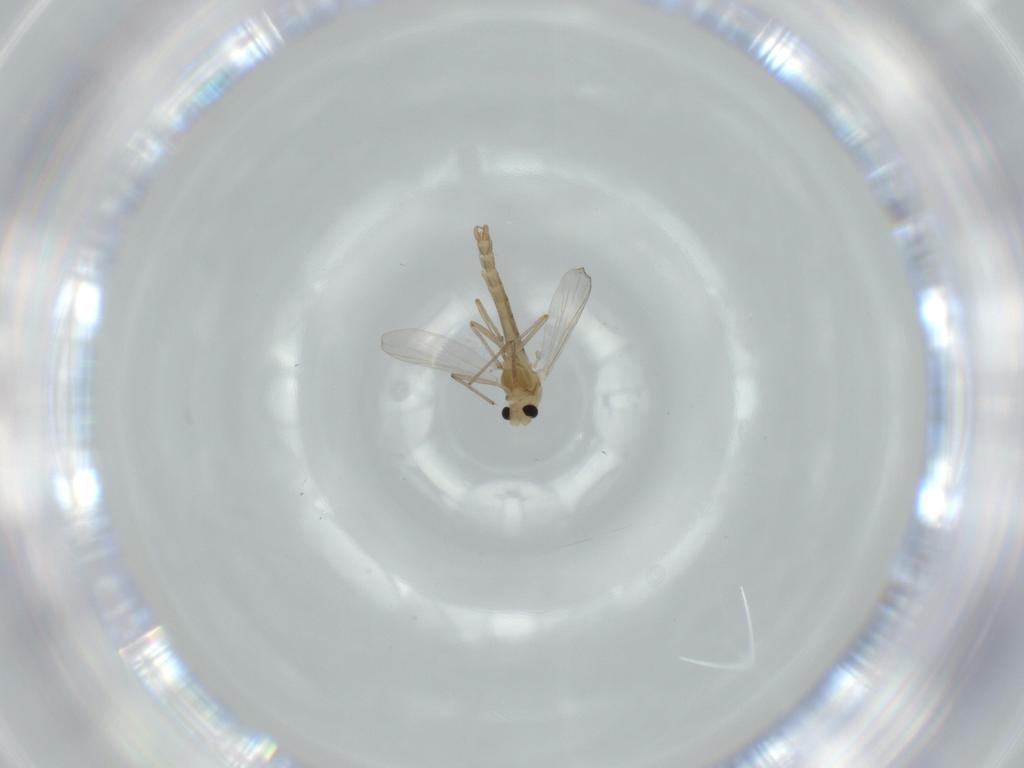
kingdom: Animalia
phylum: Arthropoda
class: Insecta
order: Diptera
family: Chironomidae
